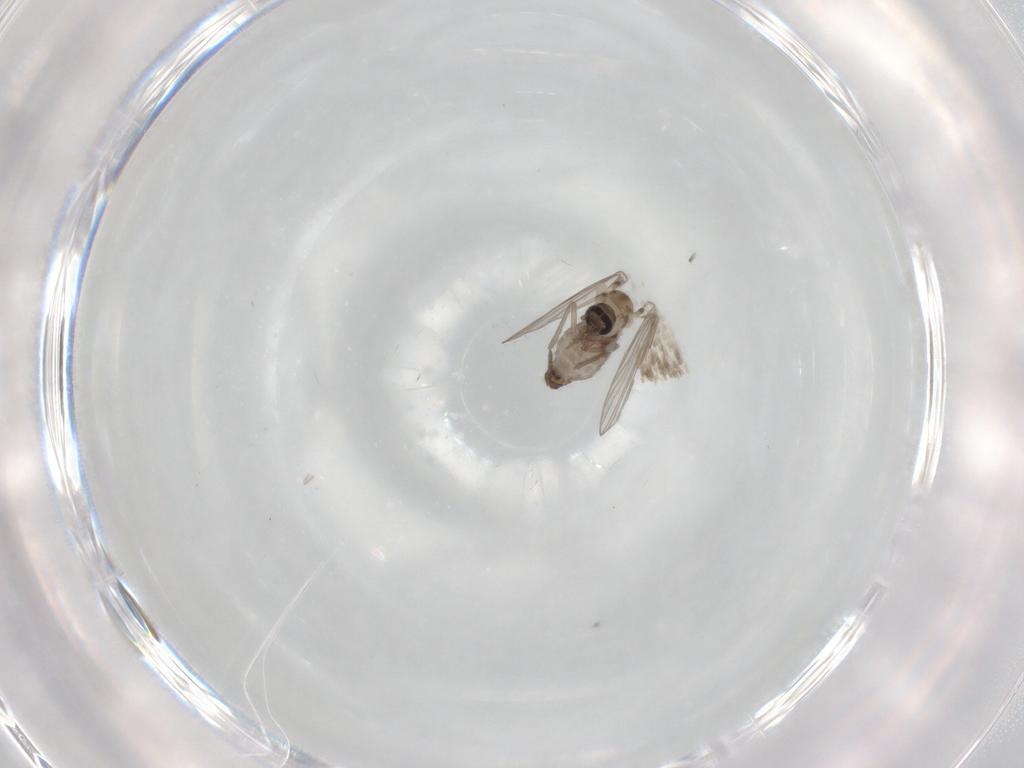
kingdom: Animalia
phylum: Arthropoda
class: Insecta
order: Diptera
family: Psychodidae
